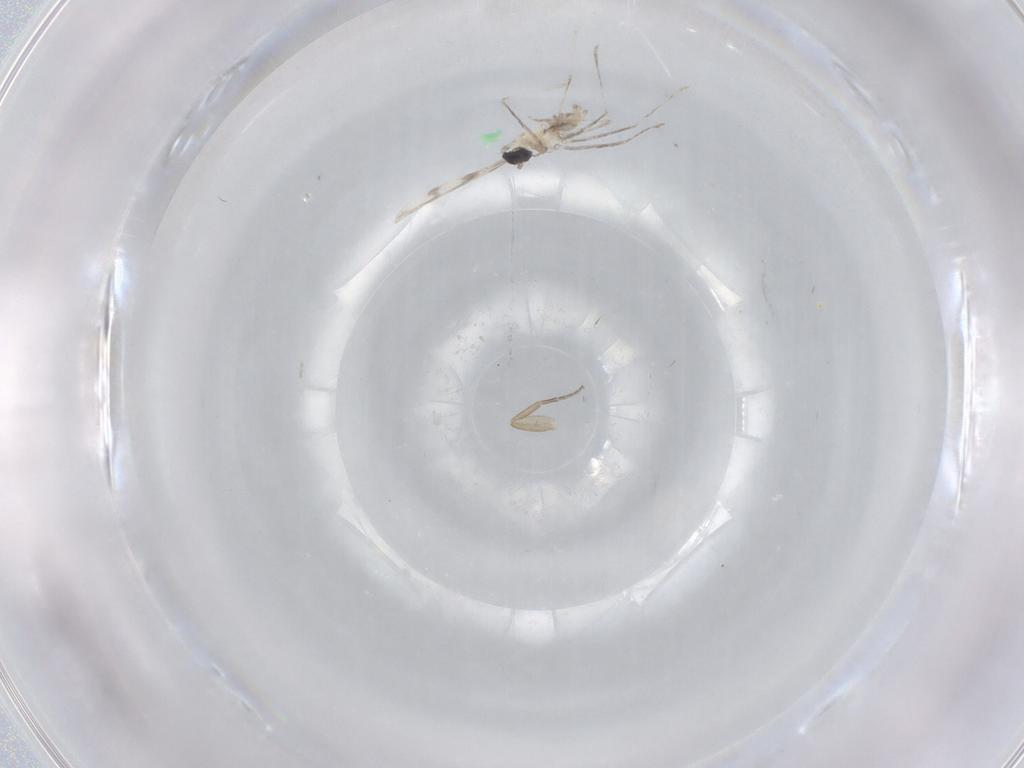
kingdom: Animalia
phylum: Arthropoda
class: Insecta
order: Diptera
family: Cecidomyiidae
